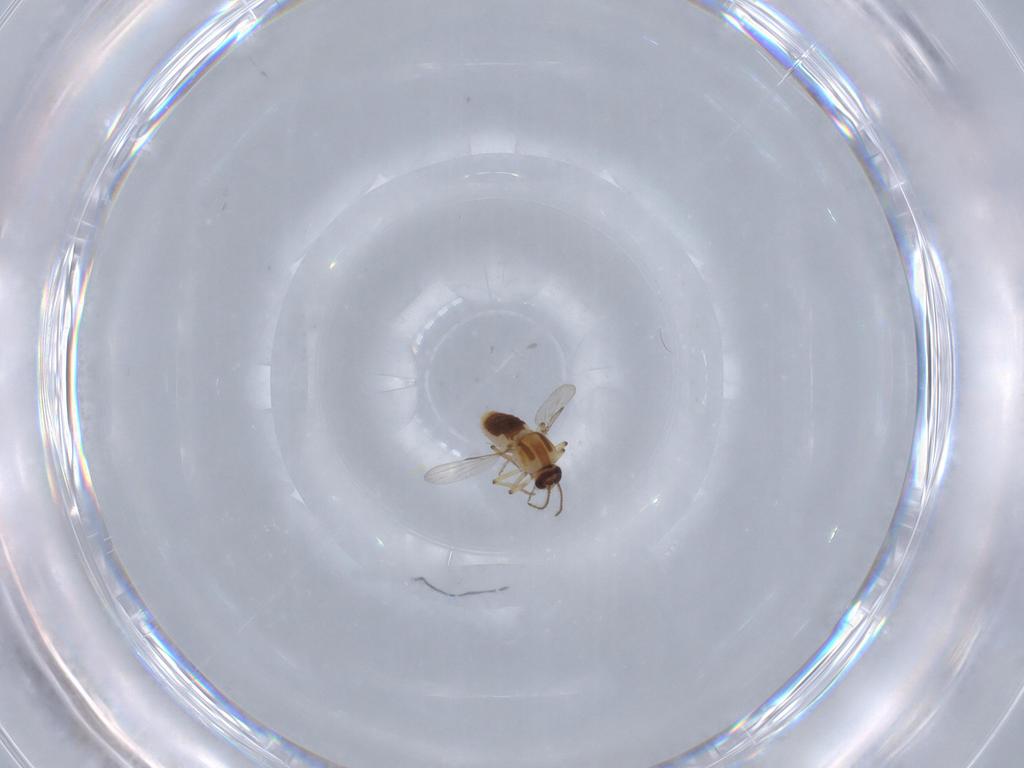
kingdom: Animalia
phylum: Arthropoda
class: Insecta
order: Diptera
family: Ceratopogonidae
